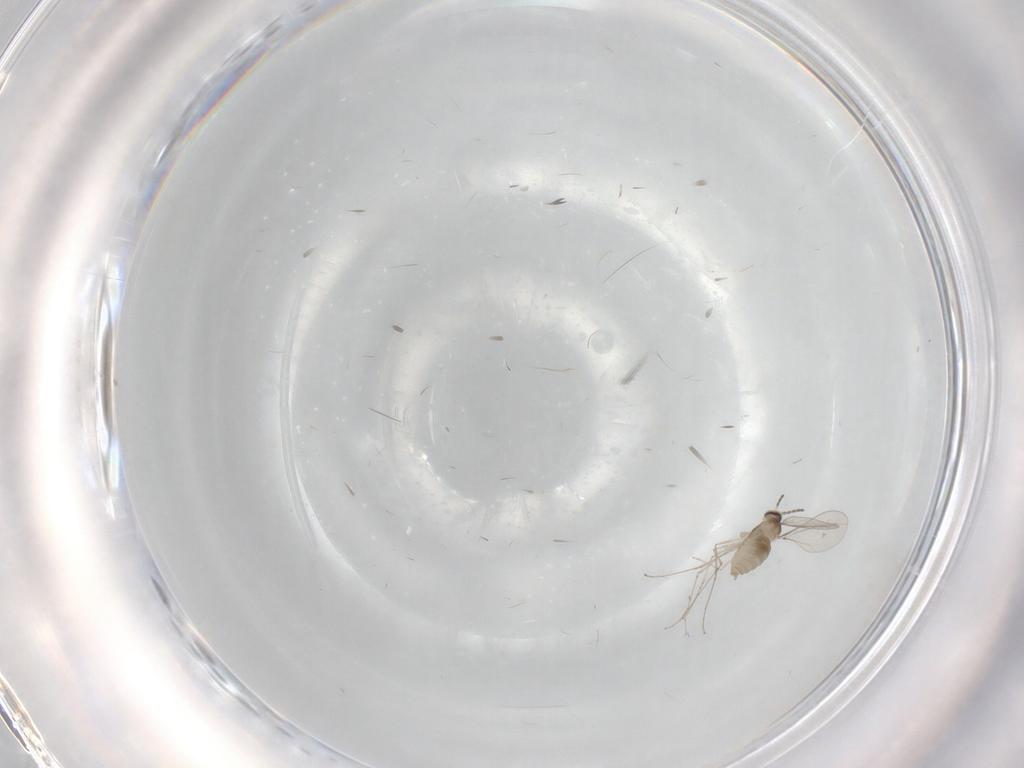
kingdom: Animalia
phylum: Arthropoda
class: Insecta
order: Diptera
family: Cecidomyiidae
